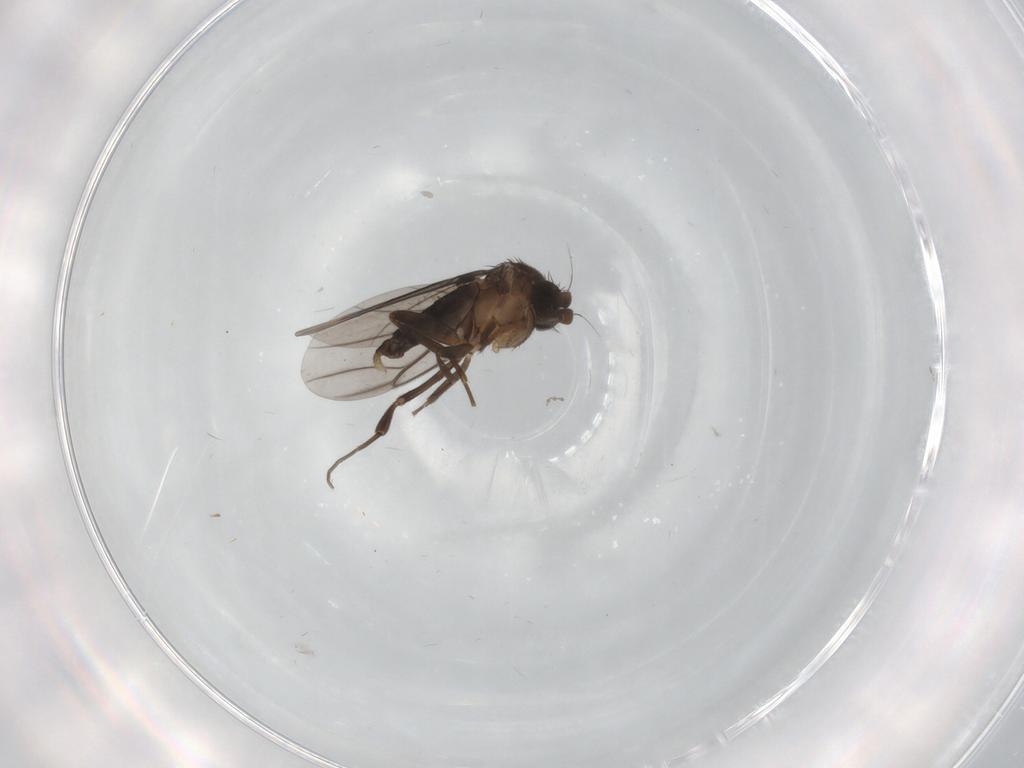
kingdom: Animalia
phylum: Arthropoda
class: Insecta
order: Diptera
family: Phoridae
